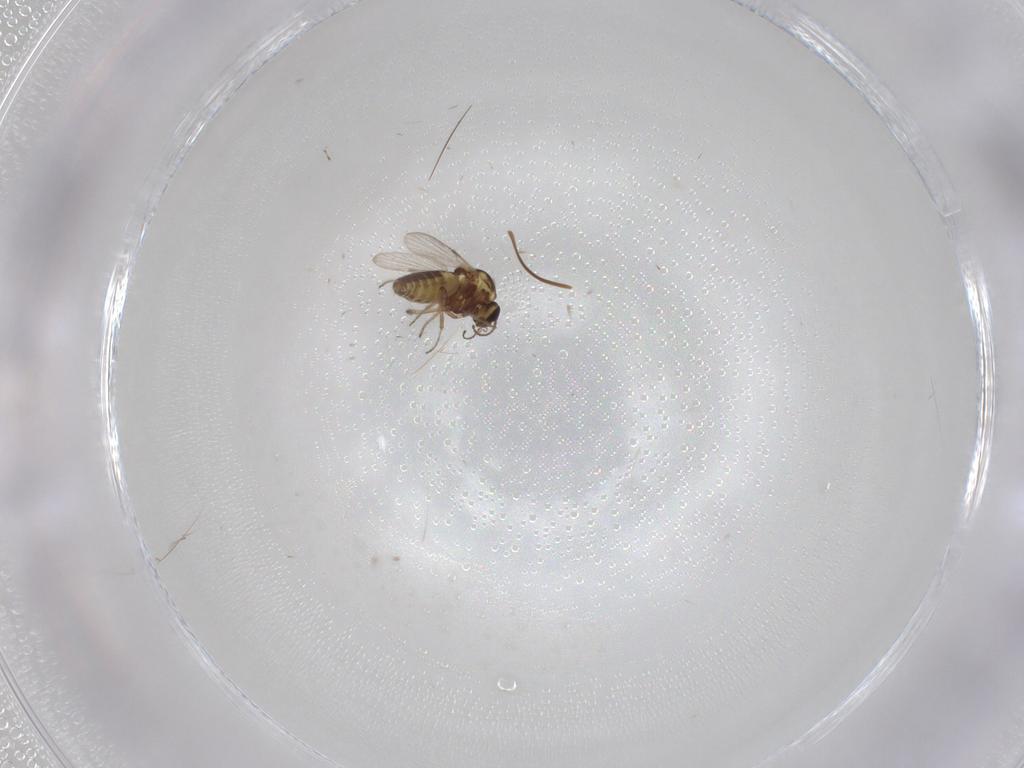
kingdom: Animalia
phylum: Arthropoda
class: Insecta
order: Diptera
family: Ceratopogonidae
